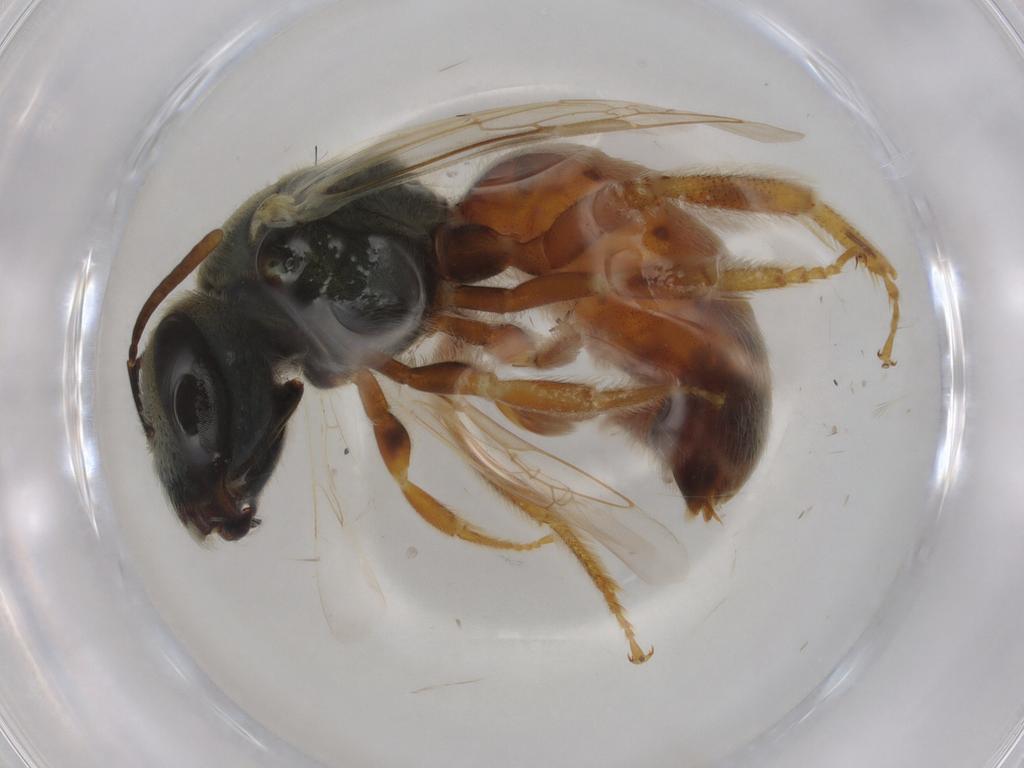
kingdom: Animalia
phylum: Arthropoda
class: Insecta
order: Hymenoptera
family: Halictidae
